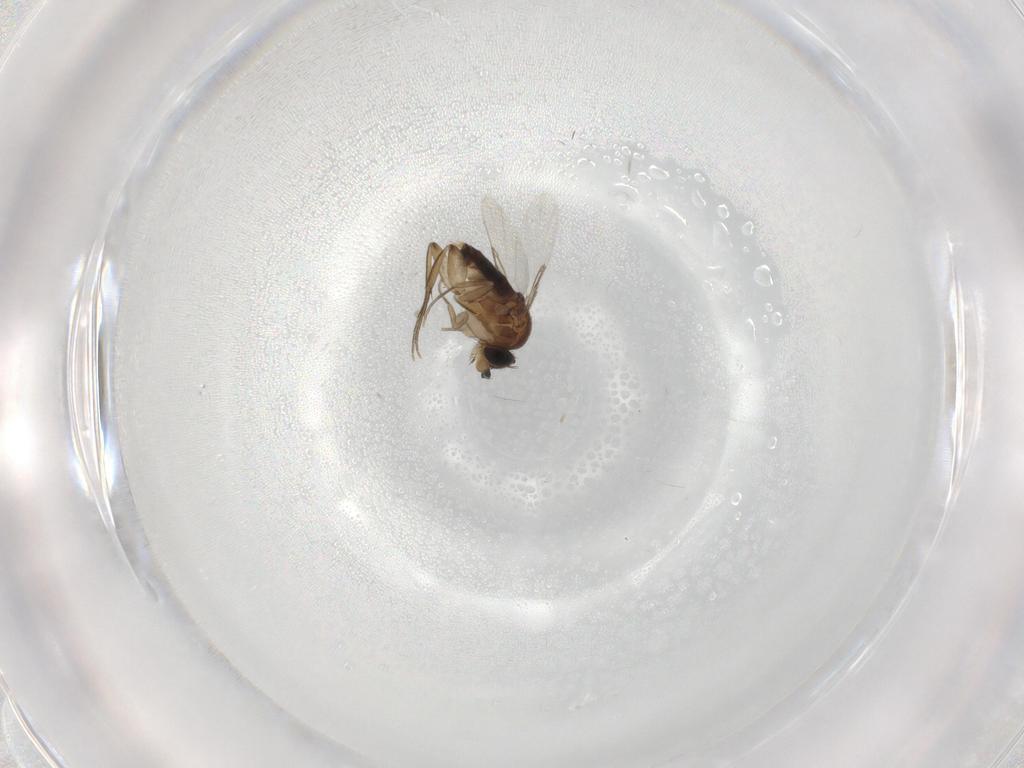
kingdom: Animalia
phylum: Arthropoda
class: Insecta
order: Diptera
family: Phoridae
